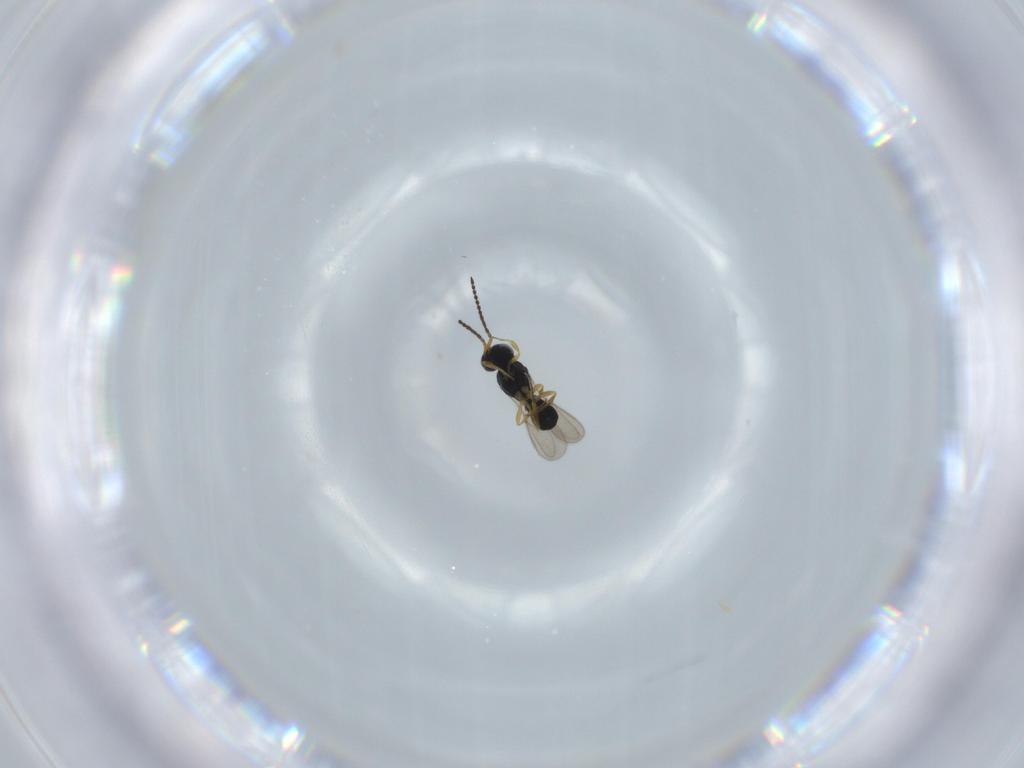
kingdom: Animalia
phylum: Arthropoda
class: Insecta
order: Hymenoptera
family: Scelionidae
